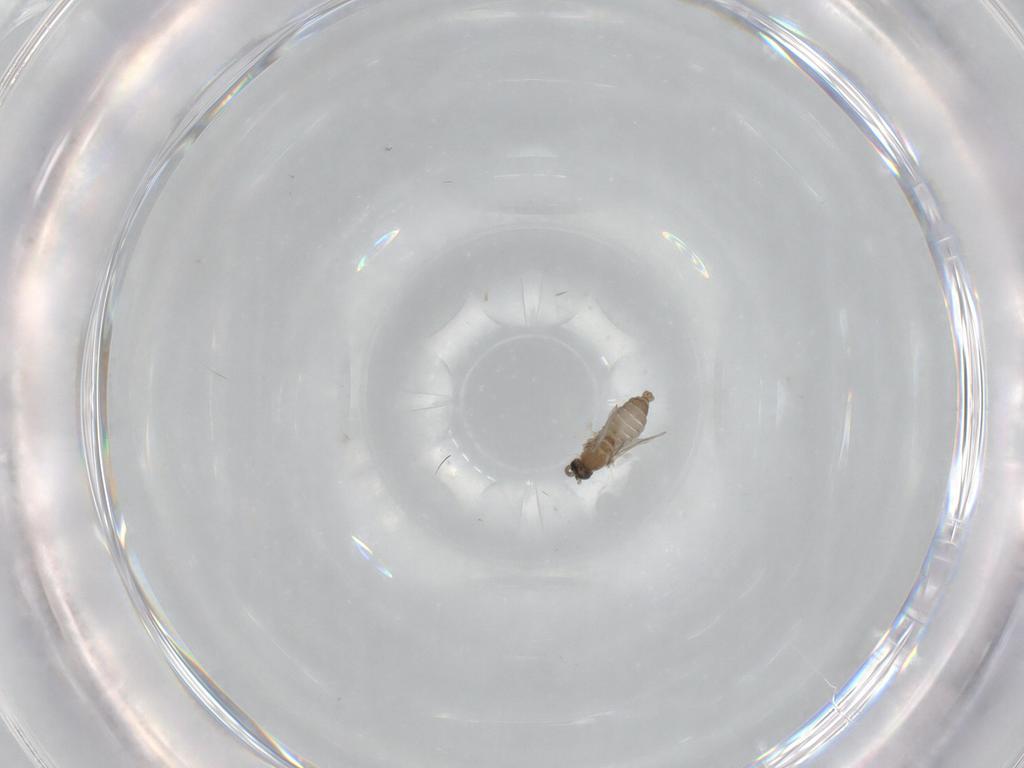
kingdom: Animalia
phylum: Arthropoda
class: Insecta
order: Diptera
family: Cecidomyiidae
